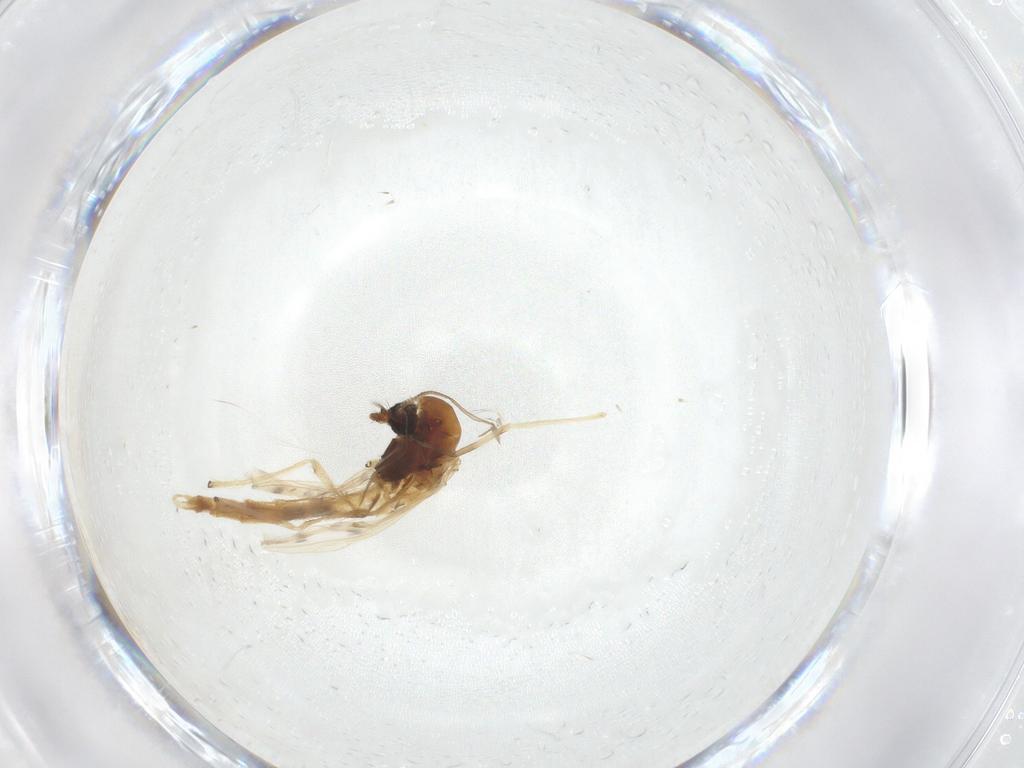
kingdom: Animalia
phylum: Arthropoda
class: Insecta
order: Diptera
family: Chironomidae
